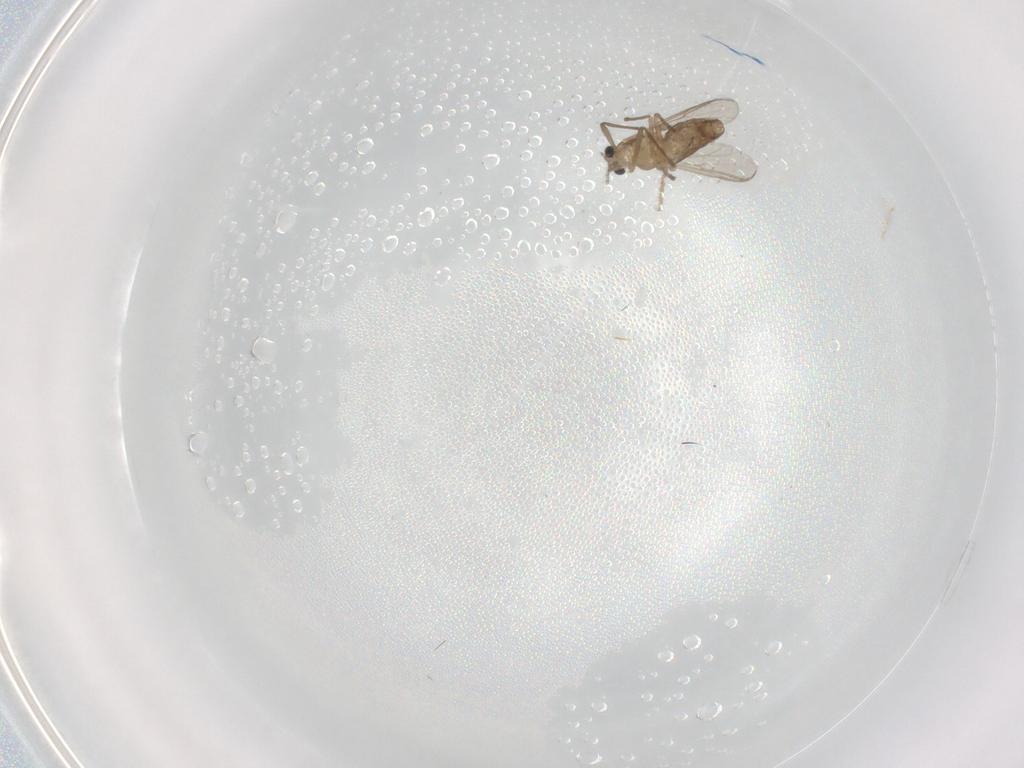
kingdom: Animalia
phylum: Arthropoda
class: Insecta
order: Diptera
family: Chironomidae
